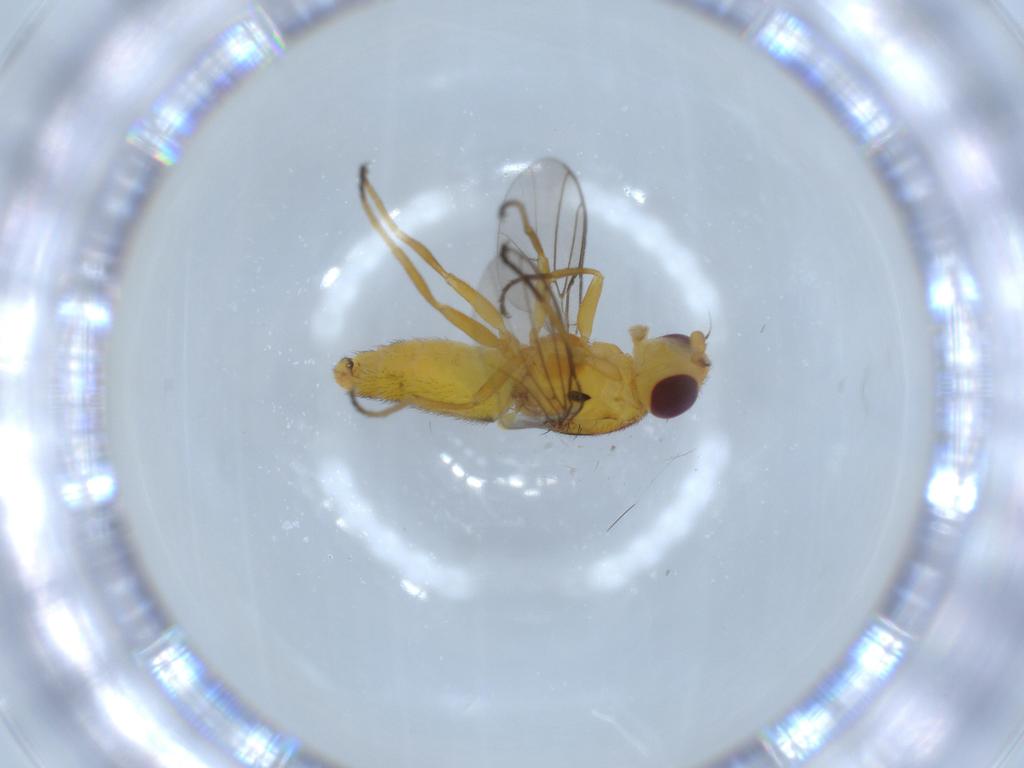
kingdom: Animalia
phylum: Arthropoda
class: Insecta
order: Diptera
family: Chloropidae
